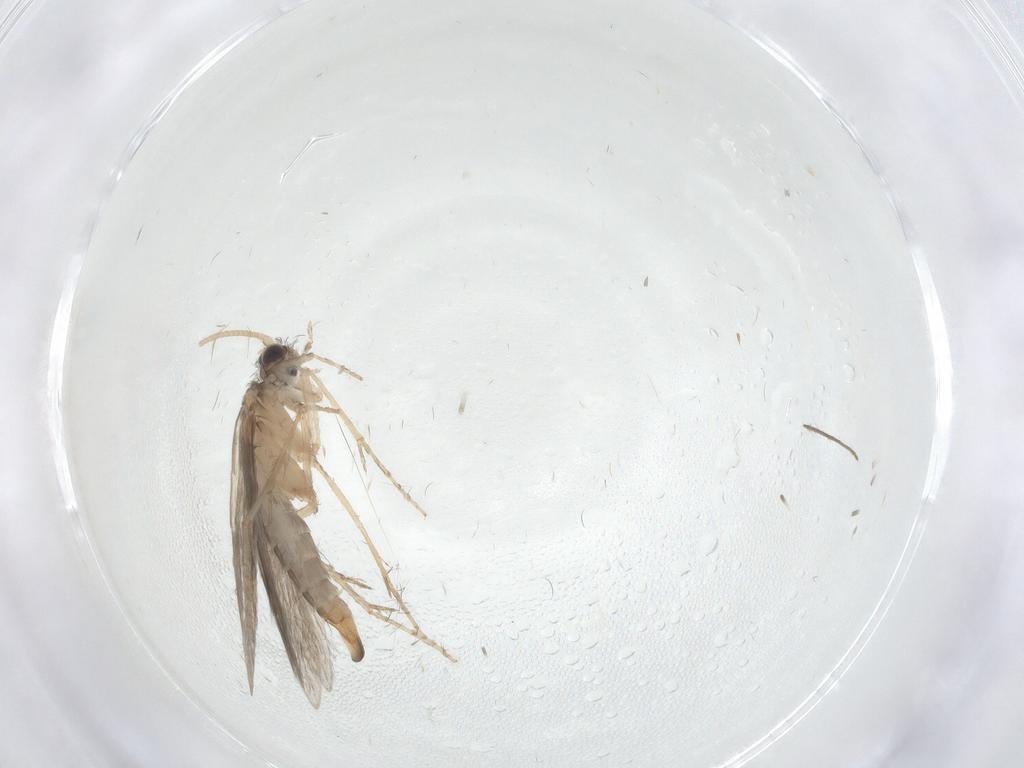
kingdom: Animalia
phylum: Arthropoda
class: Insecta
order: Trichoptera
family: Hydroptilidae
